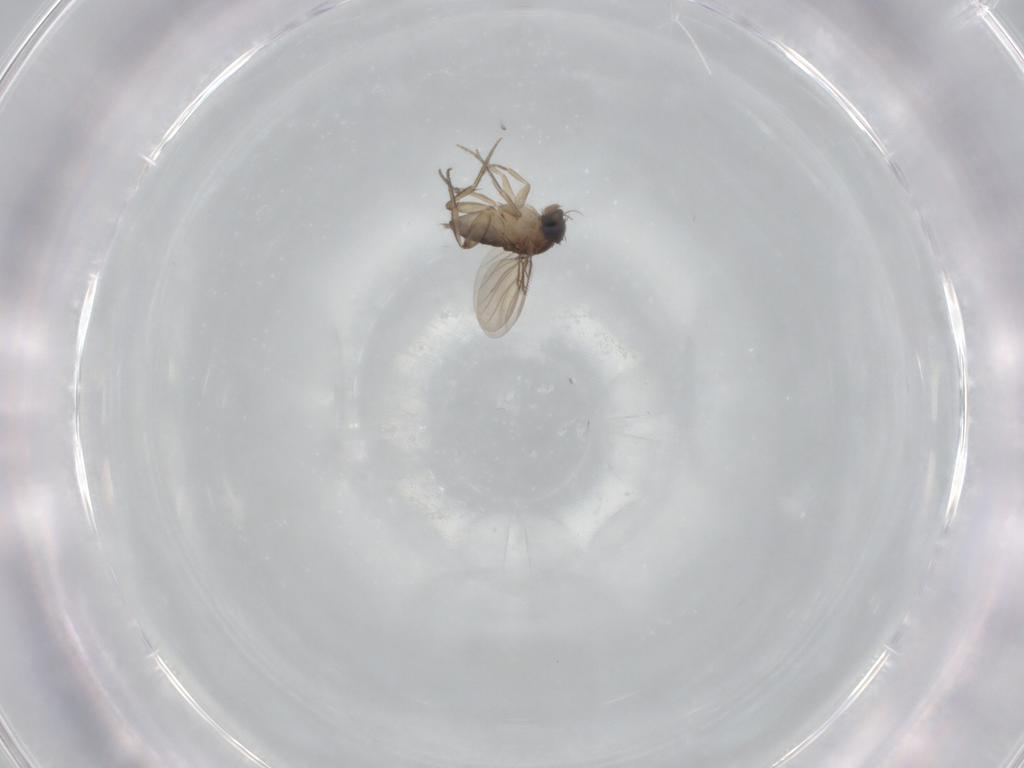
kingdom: Animalia
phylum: Arthropoda
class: Insecta
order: Diptera
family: Phoridae
